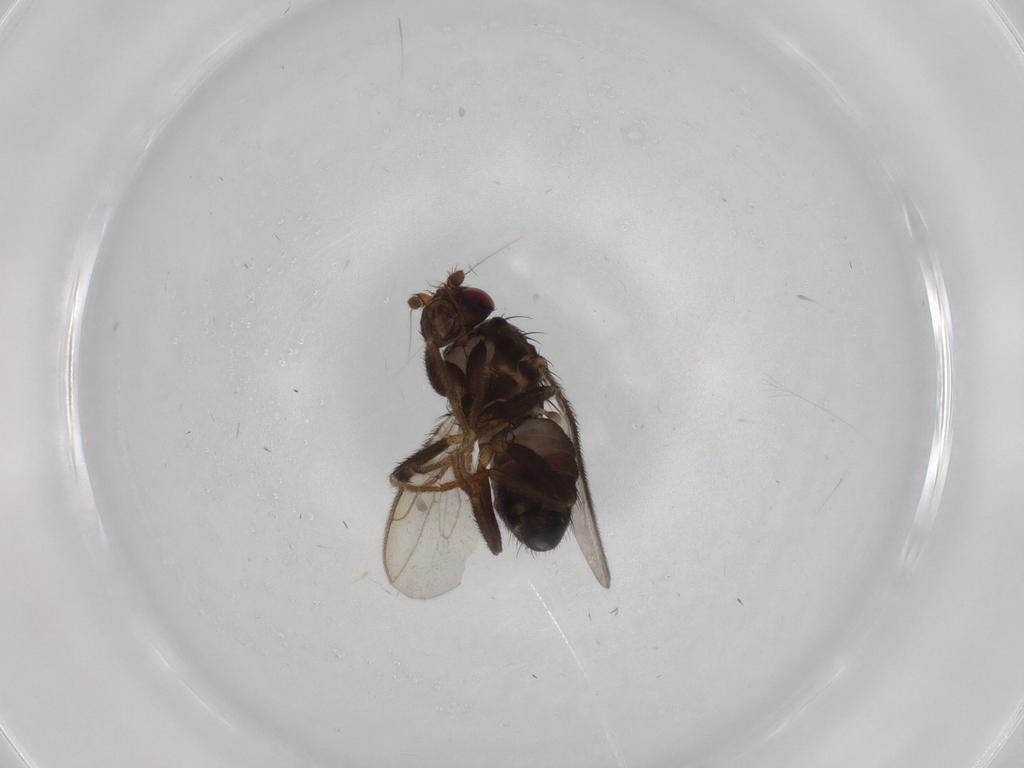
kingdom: Animalia
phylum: Arthropoda
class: Insecta
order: Diptera
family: Sphaeroceridae
